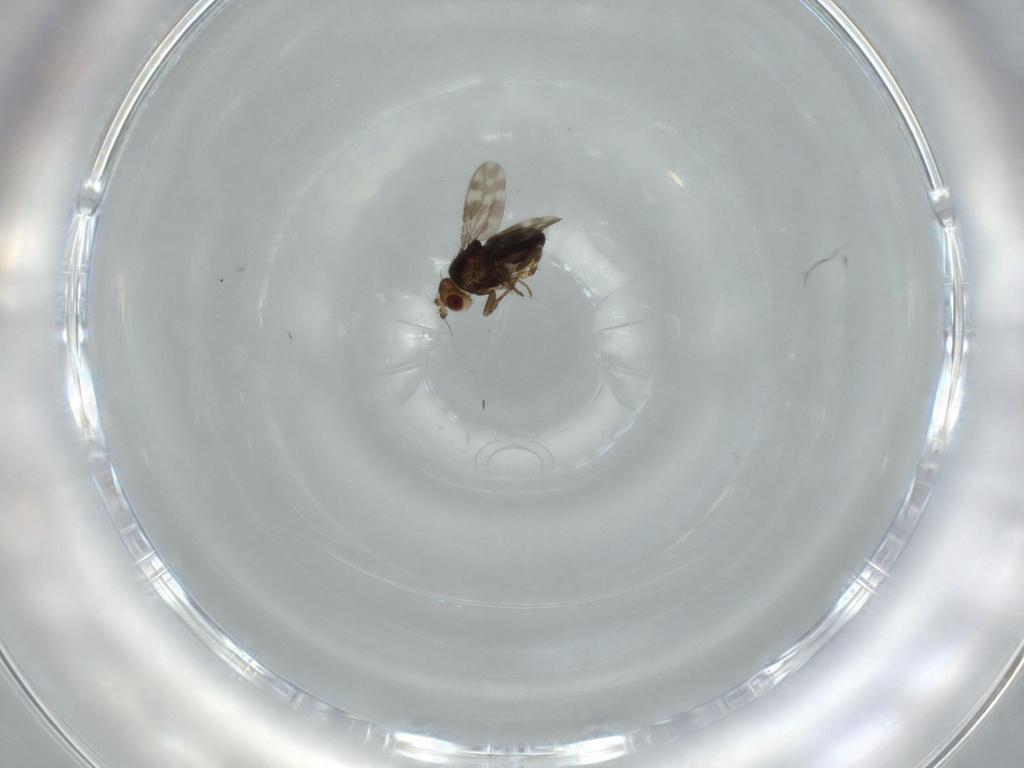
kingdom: Animalia
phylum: Arthropoda
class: Insecta
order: Diptera
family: Sphaeroceridae
